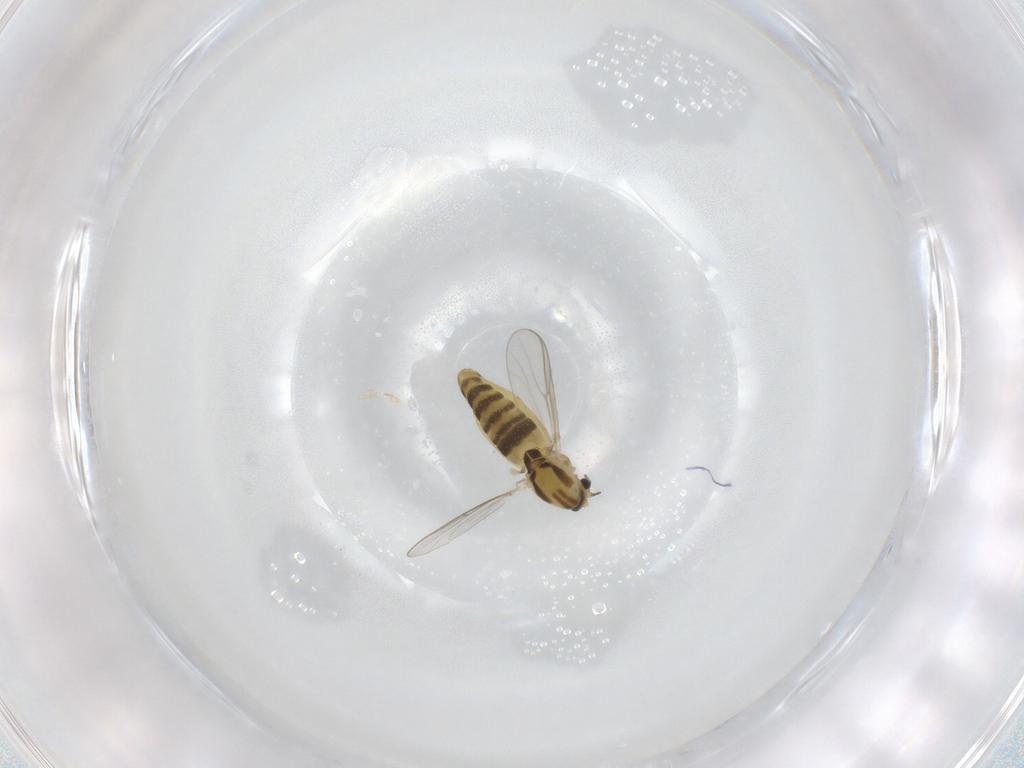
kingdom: Animalia
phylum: Arthropoda
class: Insecta
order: Diptera
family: Chironomidae
